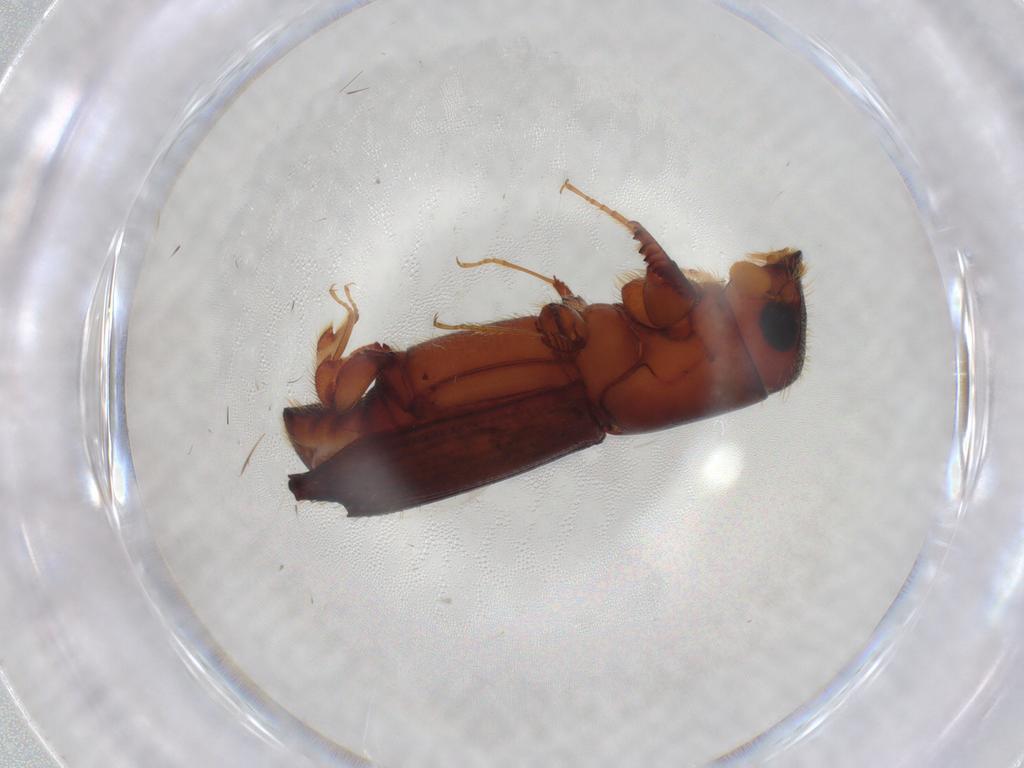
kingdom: Animalia
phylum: Arthropoda
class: Insecta
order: Coleoptera
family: Curculionidae
